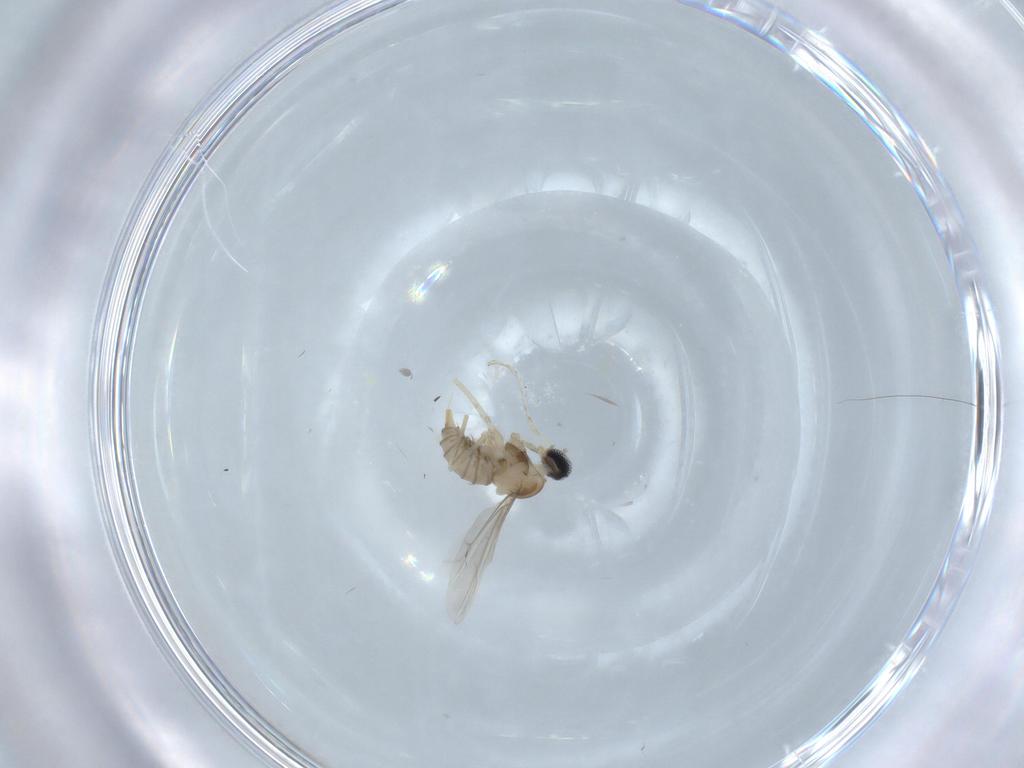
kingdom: Animalia
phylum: Arthropoda
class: Insecta
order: Diptera
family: Cecidomyiidae
